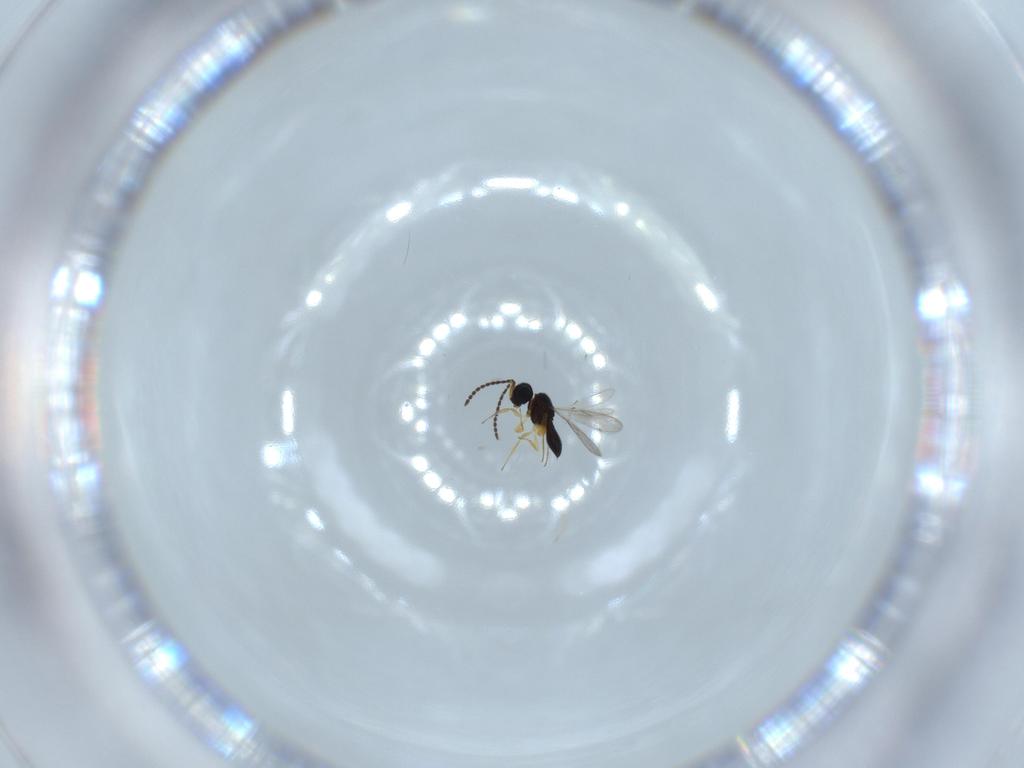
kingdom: Animalia
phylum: Arthropoda
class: Insecta
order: Hymenoptera
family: Scelionidae
